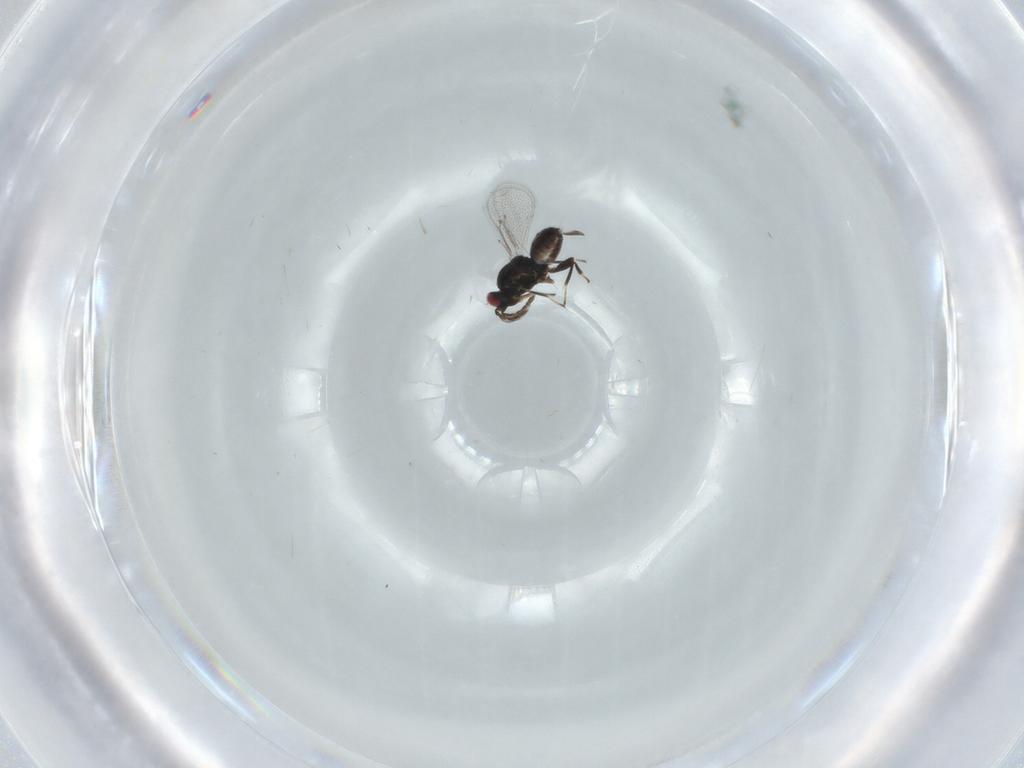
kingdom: Animalia
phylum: Arthropoda
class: Insecta
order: Hymenoptera
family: Eulophidae
